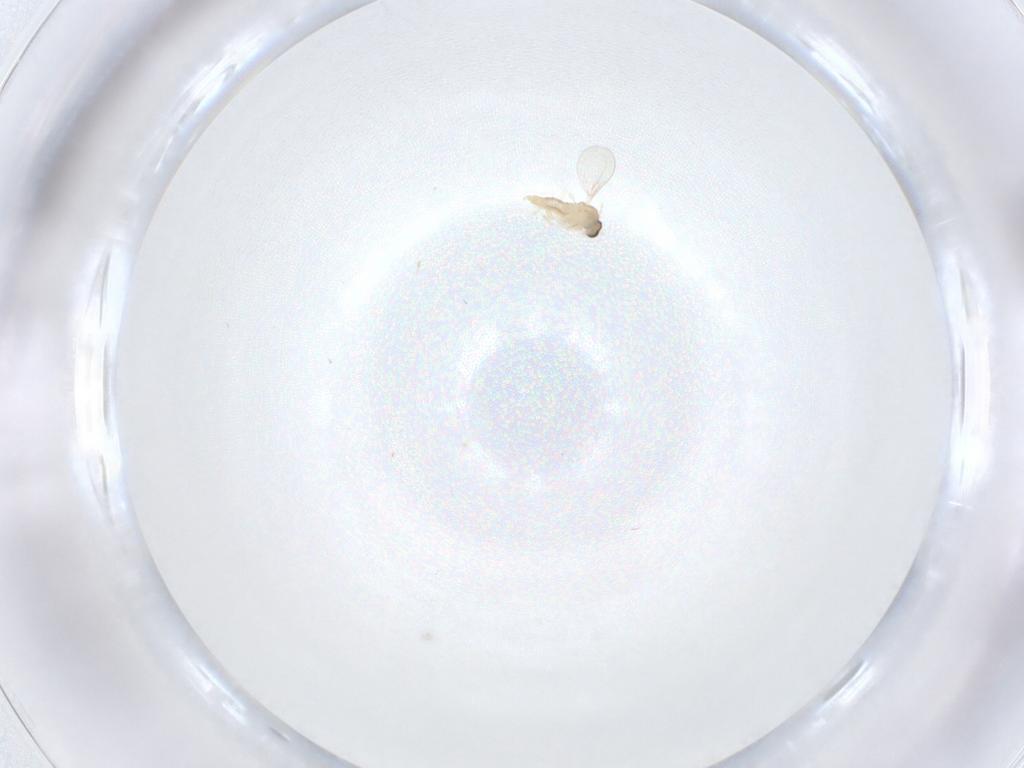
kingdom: Animalia
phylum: Arthropoda
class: Insecta
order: Diptera
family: Cecidomyiidae
